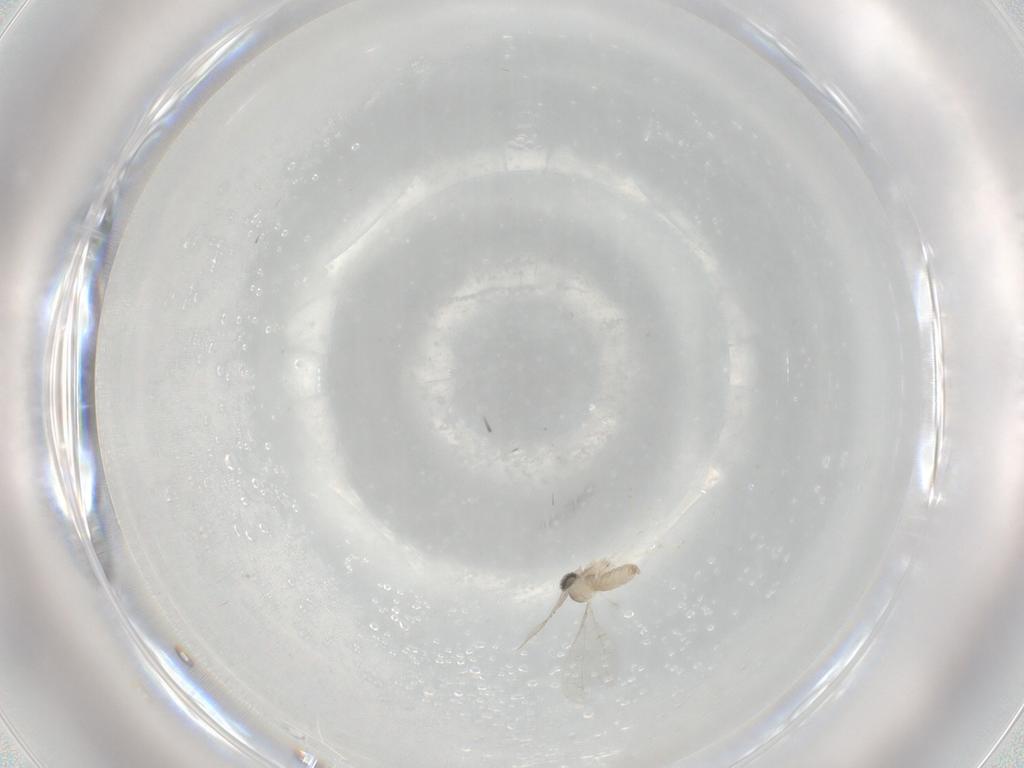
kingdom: Animalia
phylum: Arthropoda
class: Insecta
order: Diptera
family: Cecidomyiidae
